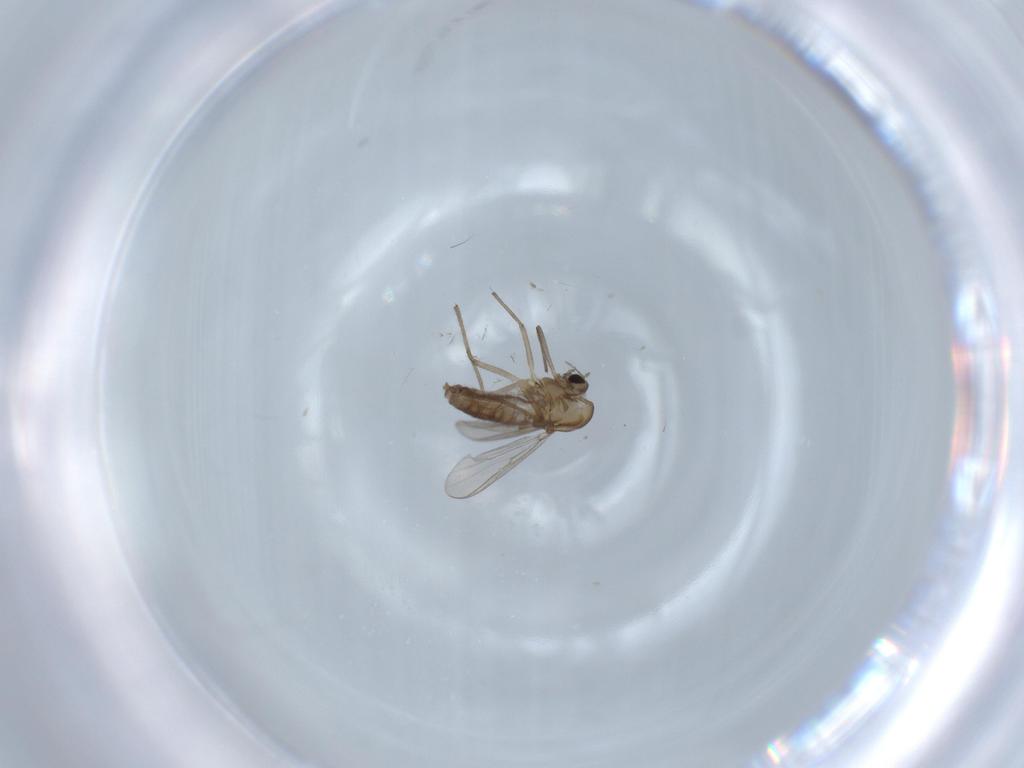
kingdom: Animalia
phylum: Arthropoda
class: Insecta
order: Diptera
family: Chironomidae
